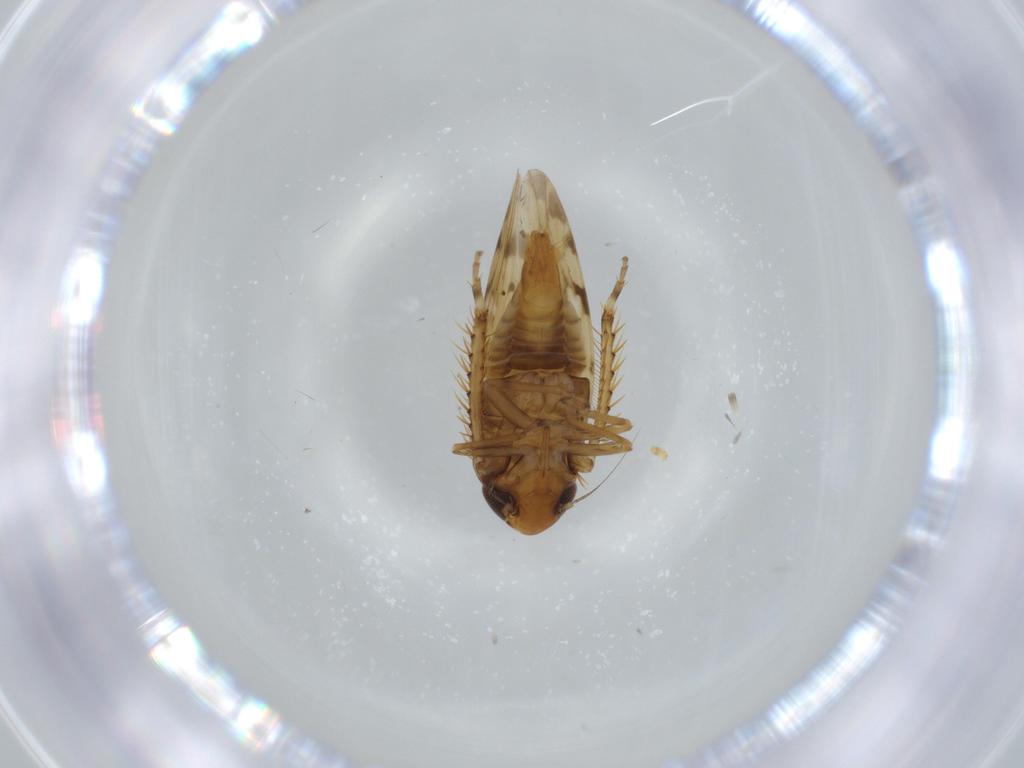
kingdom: Animalia
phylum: Arthropoda
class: Insecta
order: Hemiptera
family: Cicadellidae
